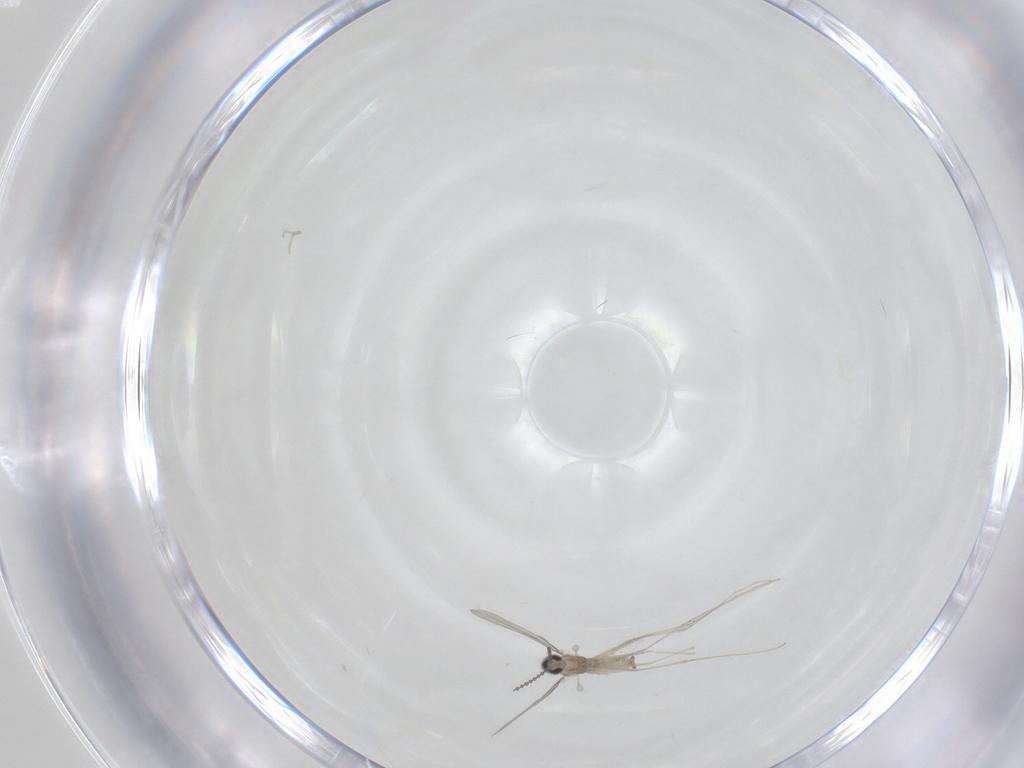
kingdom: Animalia
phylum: Arthropoda
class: Insecta
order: Diptera
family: Cecidomyiidae
